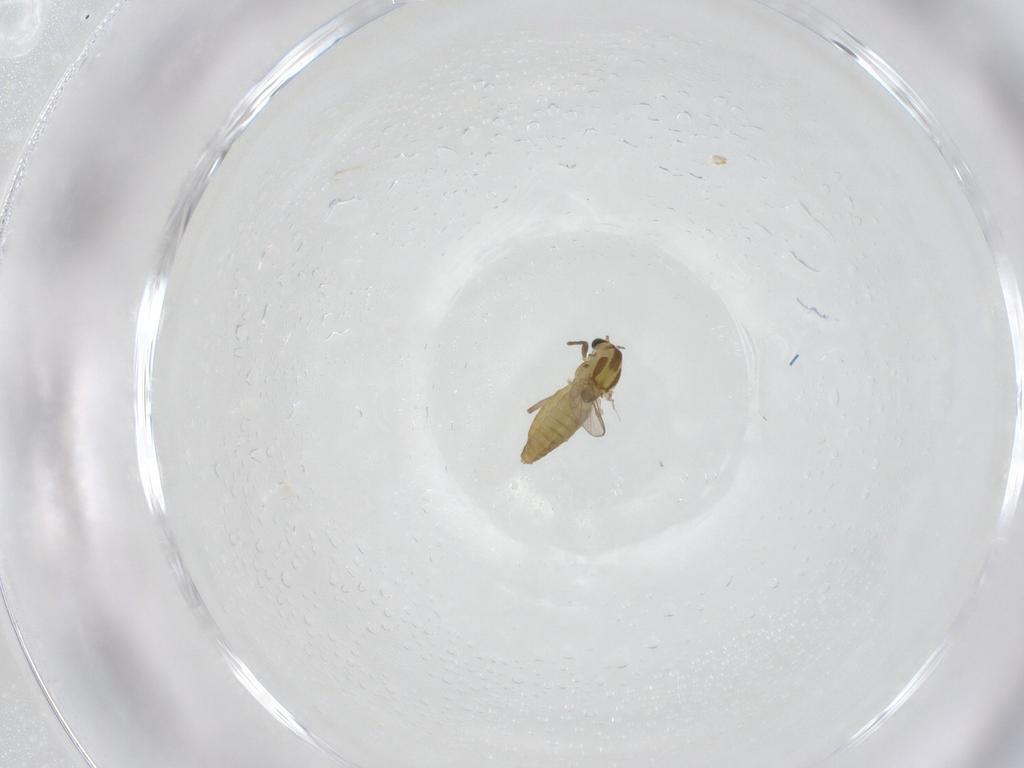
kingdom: Animalia
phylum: Arthropoda
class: Insecta
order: Diptera
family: Chironomidae
